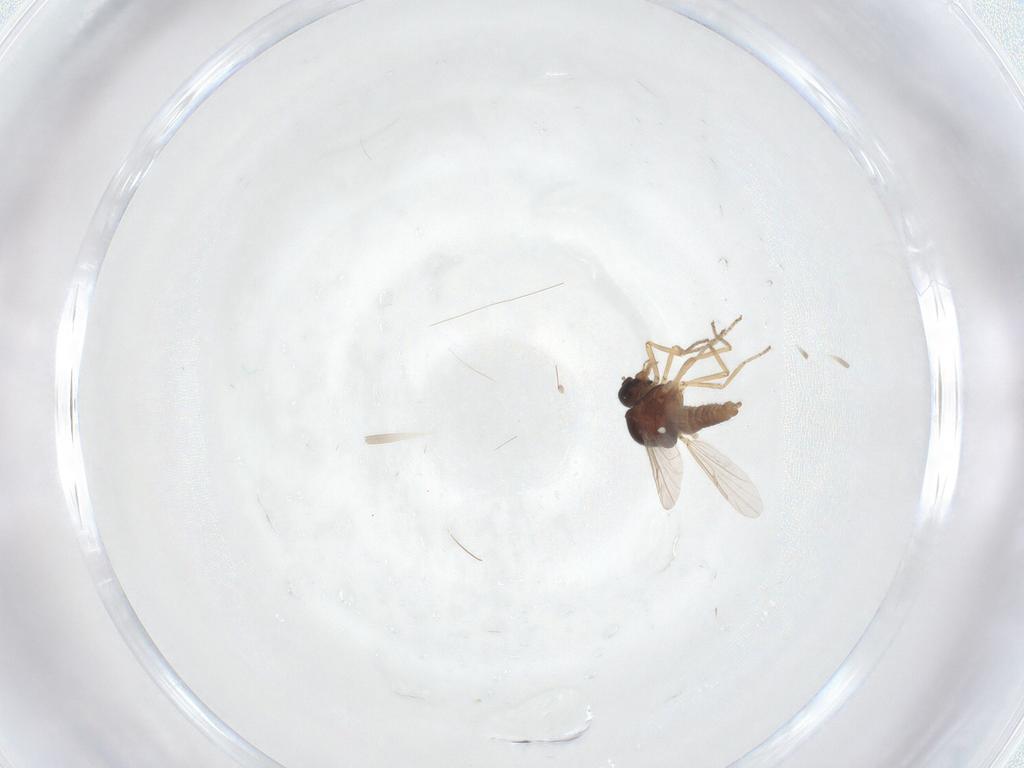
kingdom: Animalia
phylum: Arthropoda
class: Insecta
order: Diptera
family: Ceratopogonidae
